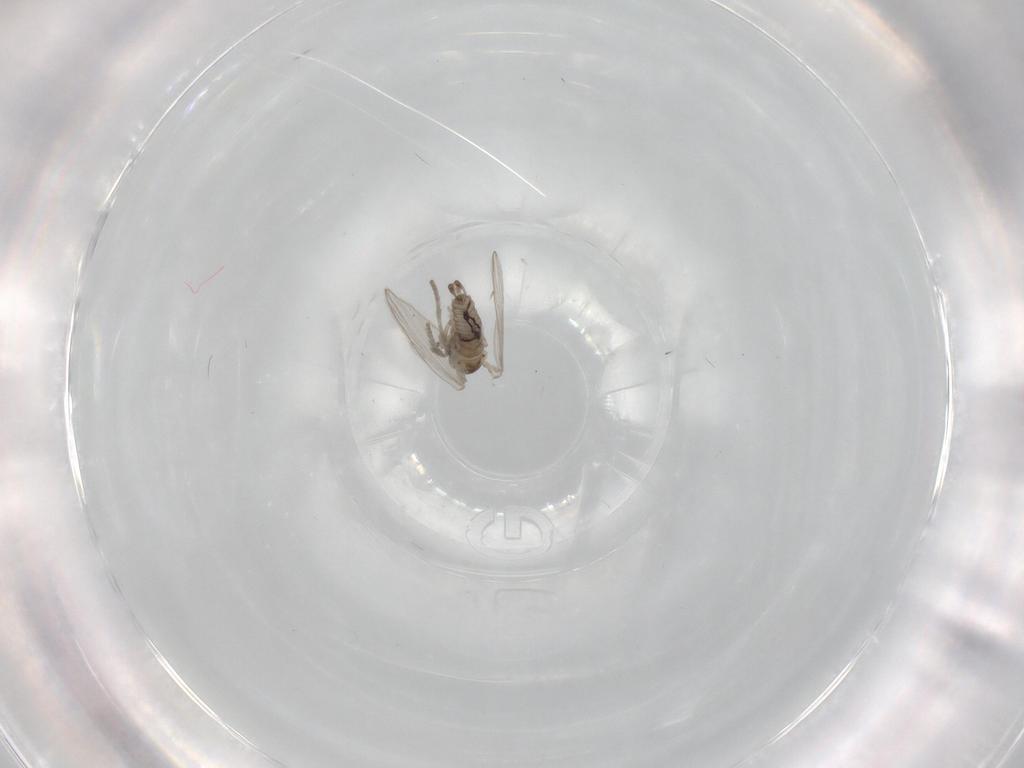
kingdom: Animalia
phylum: Arthropoda
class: Insecta
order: Diptera
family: Psychodidae
